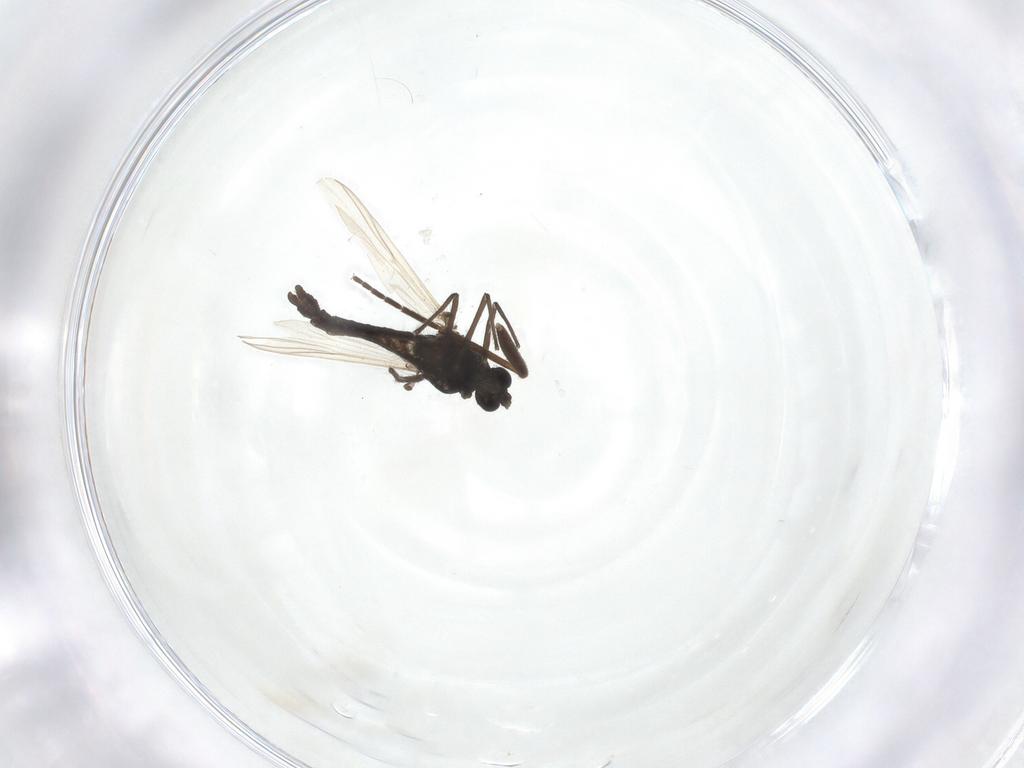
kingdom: Animalia
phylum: Arthropoda
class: Insecta
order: Diptera
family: Sciaridae
